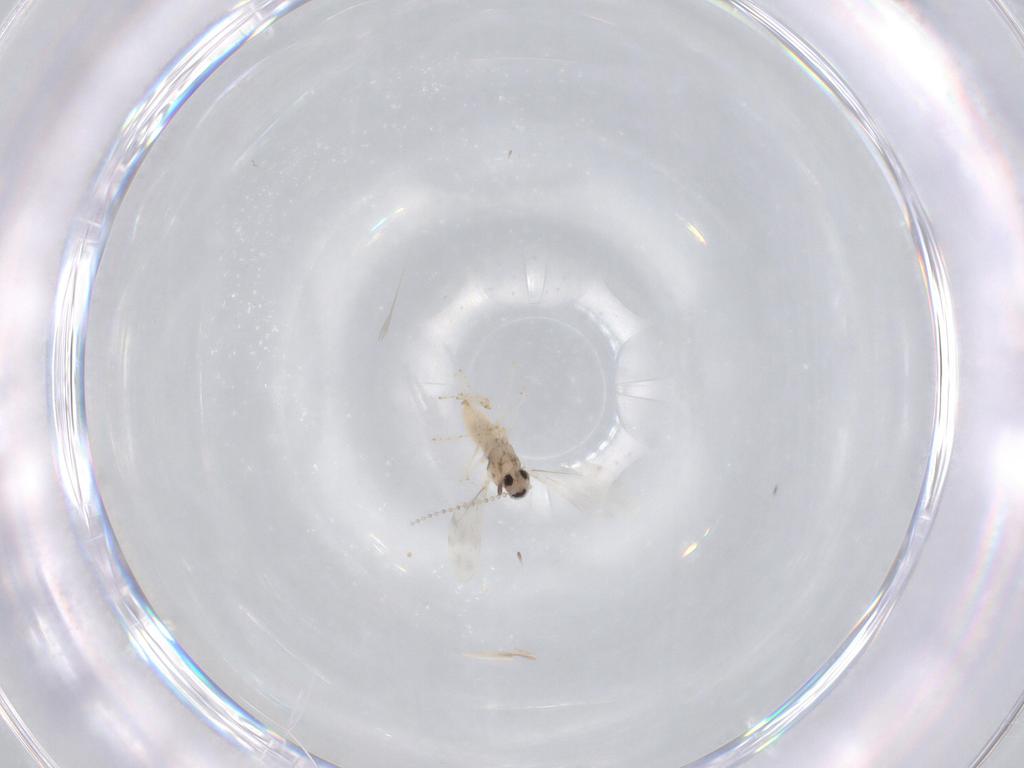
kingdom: Animalia
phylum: Arthropoda
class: Insecta
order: Diptera
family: Cecidomyiidae
